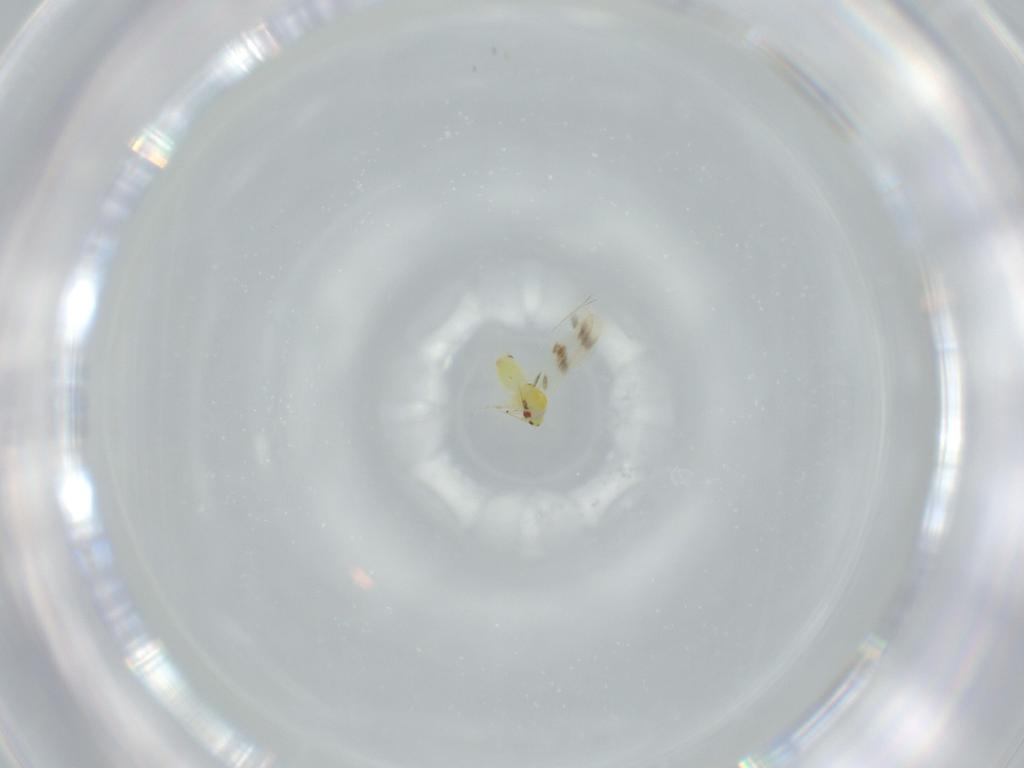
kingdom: Animalia
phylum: Arthropoda
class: Insecta
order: Hemiptera
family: Aleyrodidae
